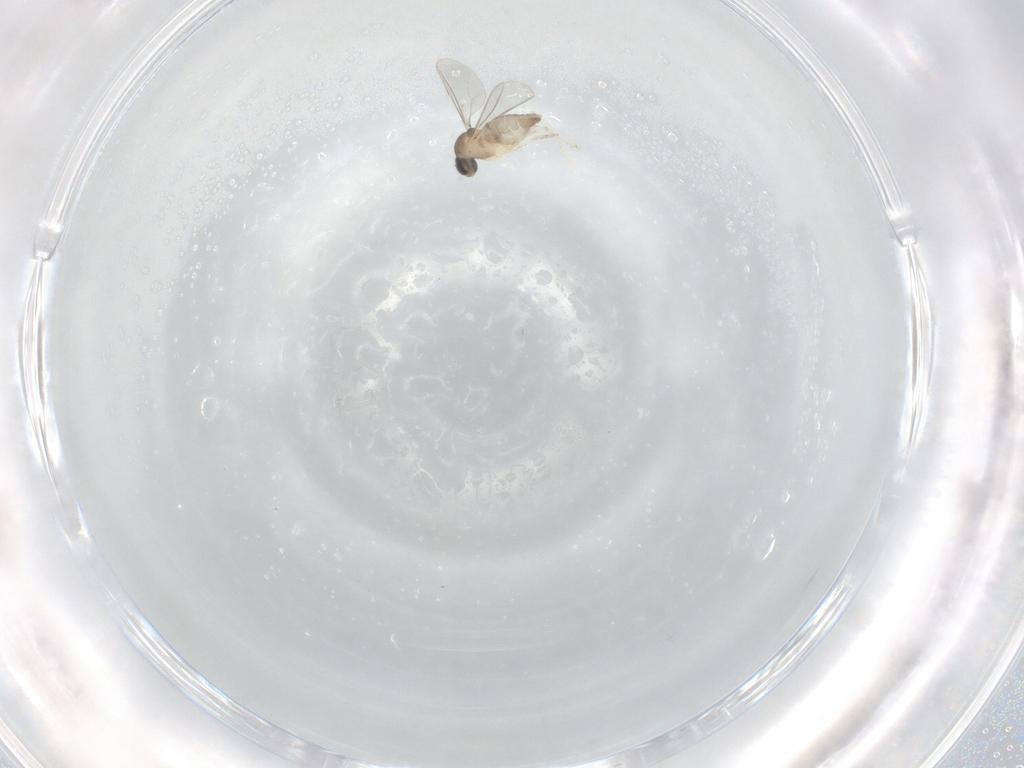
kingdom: Animalia
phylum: Arthropoda
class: Insecta
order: Diptera
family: Cecidomyiidae
